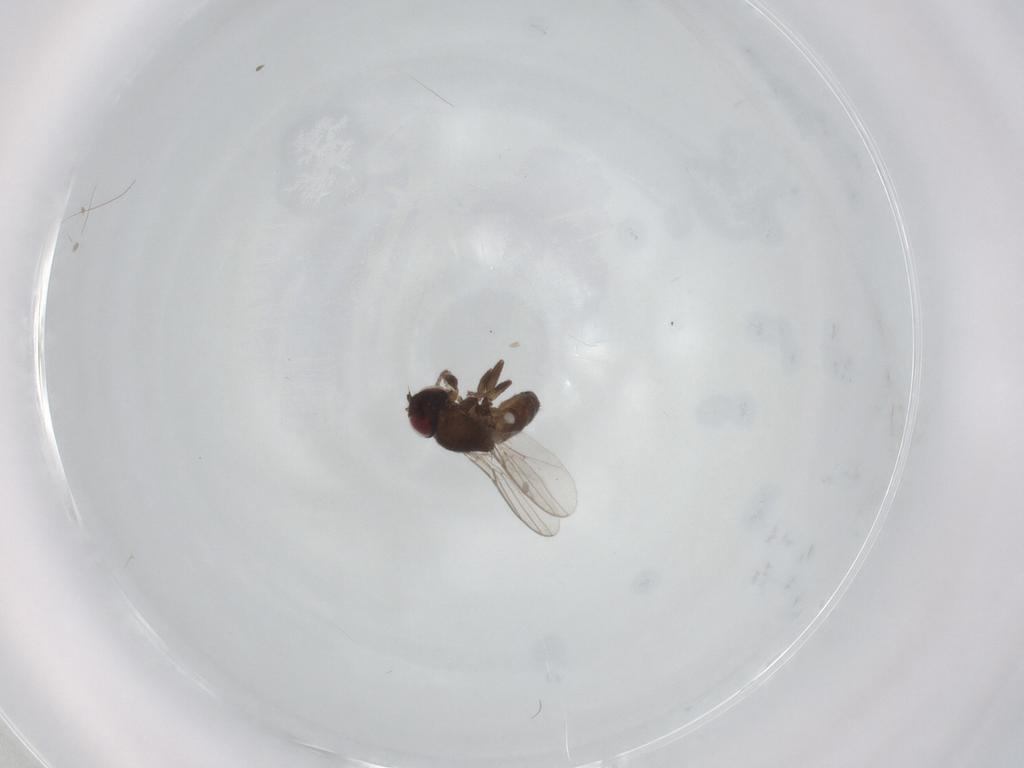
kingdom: Animalia
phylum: Arthropoda
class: Insecta
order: Diptera
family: Chloropidae
